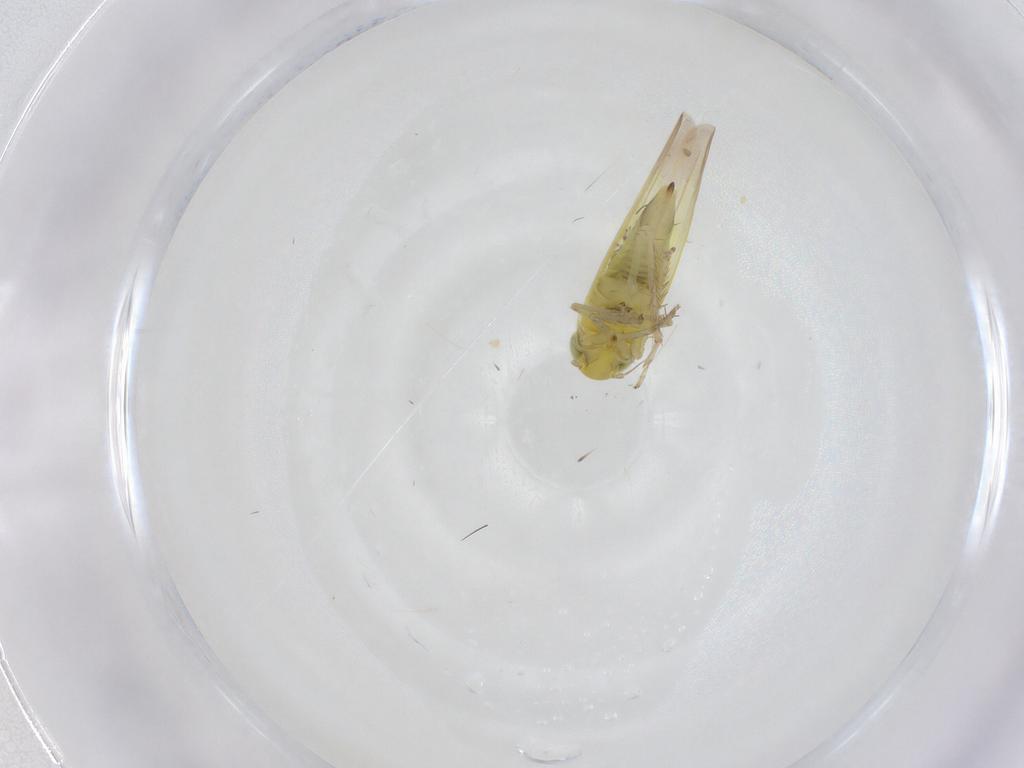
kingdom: Animalia
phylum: Arthropoda
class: Insecta
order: Hemiptera
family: Cicadellidae
